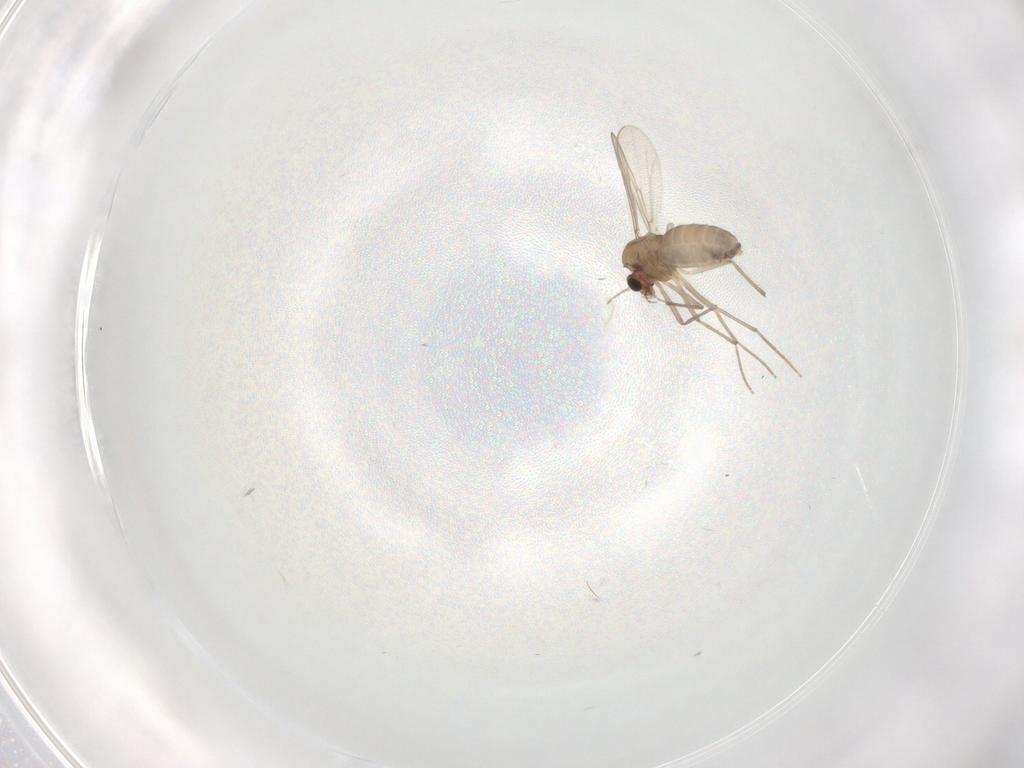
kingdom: Animalia
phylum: Arthropoda
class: Insecta
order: Diptera
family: Chironomidae
